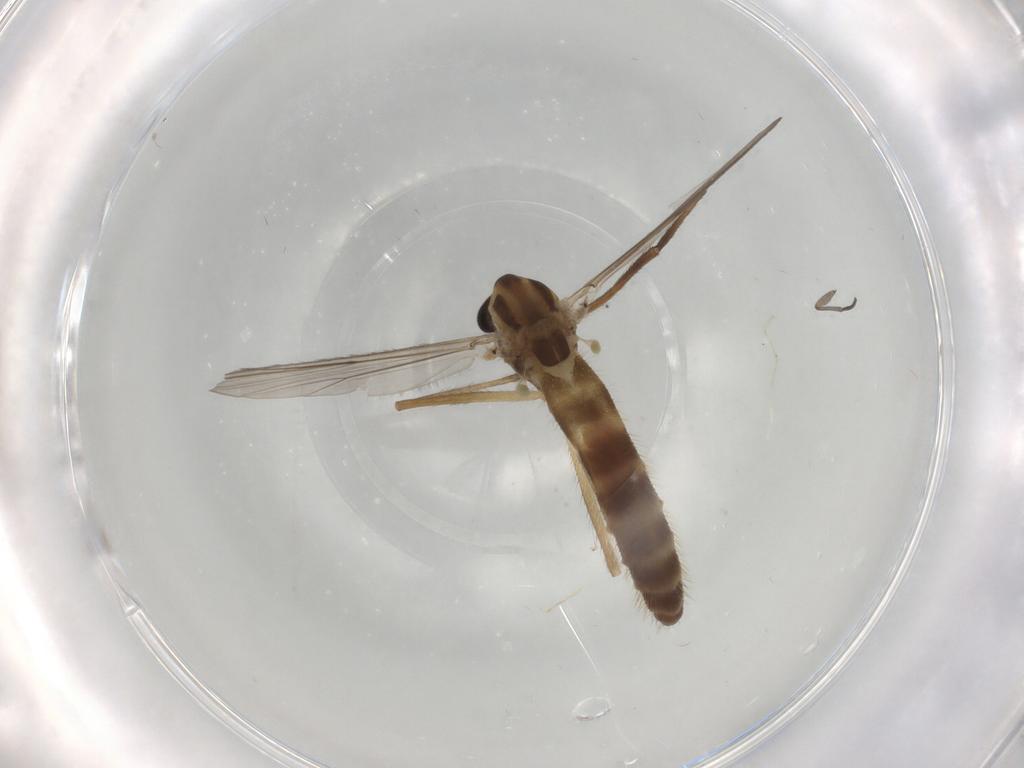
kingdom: Animalia
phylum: Arthropoda
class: Insecta
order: Diptera
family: Chironomidae
